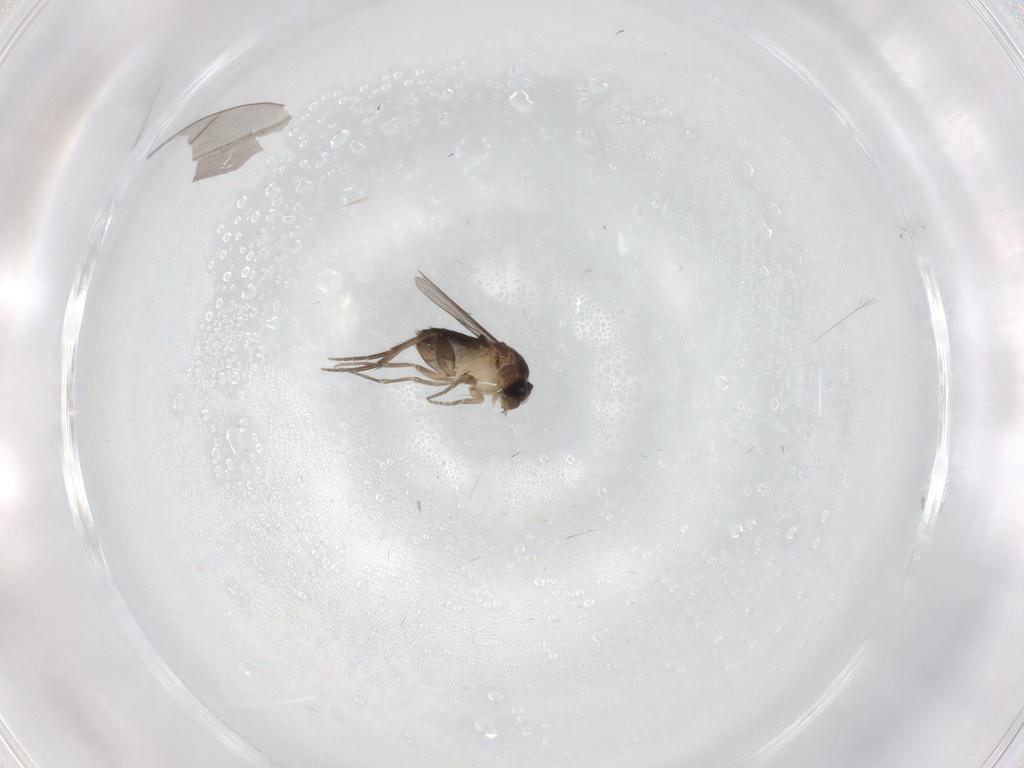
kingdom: Animalia
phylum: Arthropoda
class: Insecta
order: Diptera
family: Phoridae
